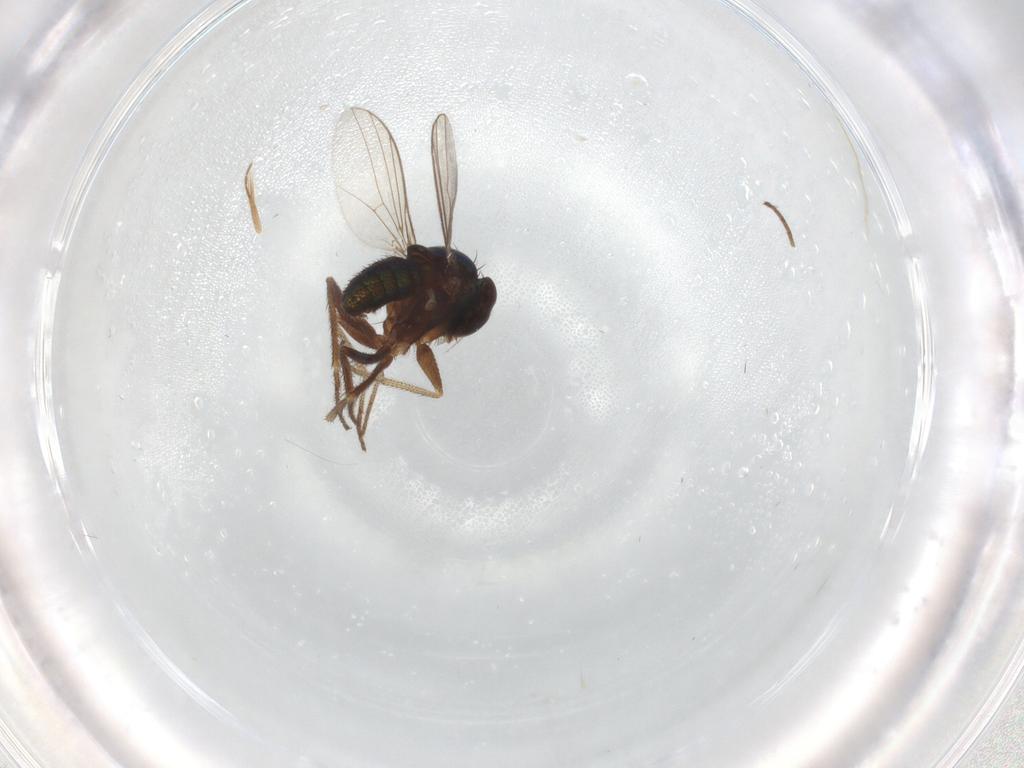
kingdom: Animalia
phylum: Arthropoda
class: Insecta
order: Diptera
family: Dolichopodidae
